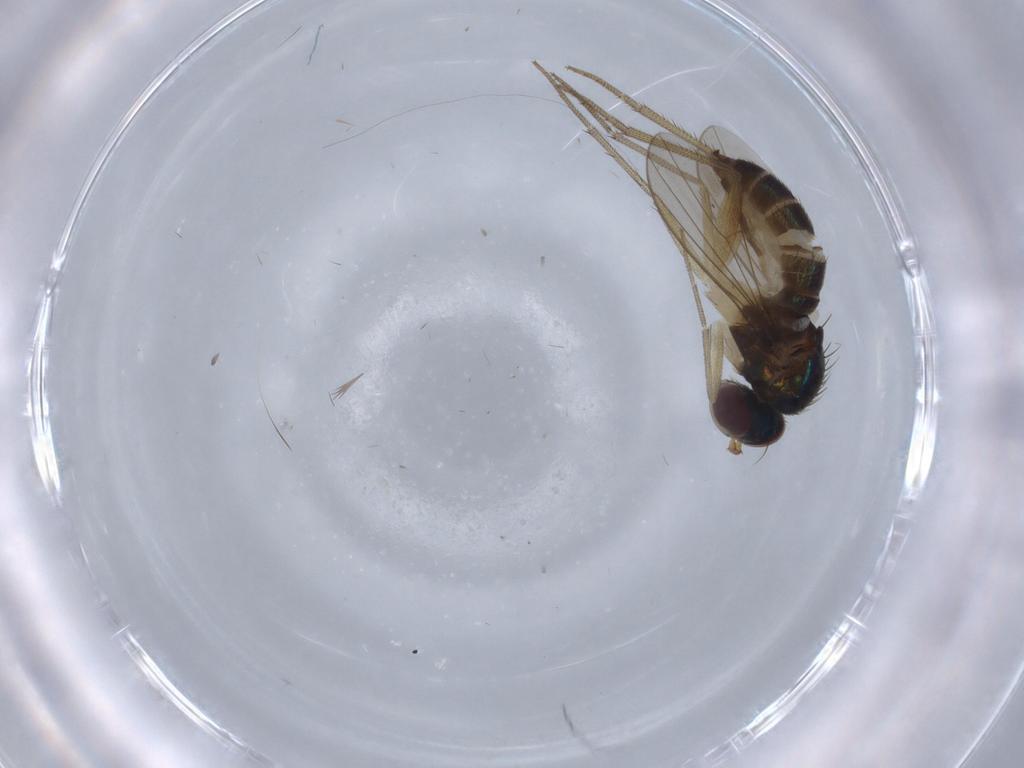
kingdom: Animalia
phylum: Arthropoda
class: Insecta
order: Diptera
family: Dolichopodidae
